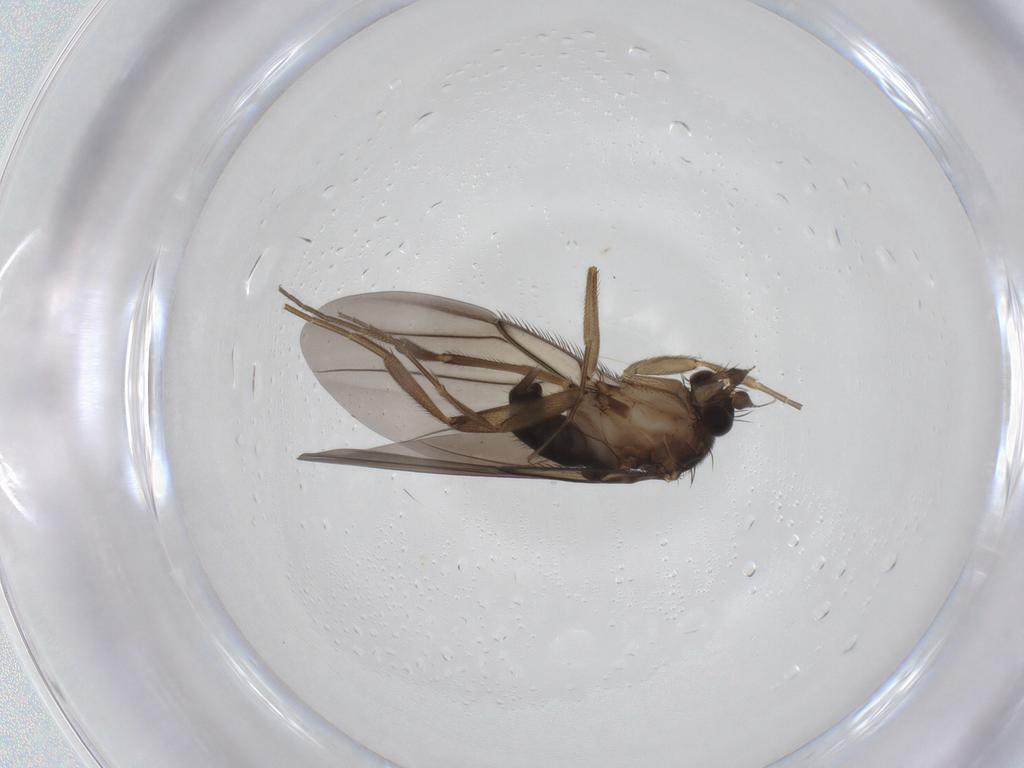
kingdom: Animalia
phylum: Arthropoda
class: Insecta
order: Diptera
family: Phoridae
